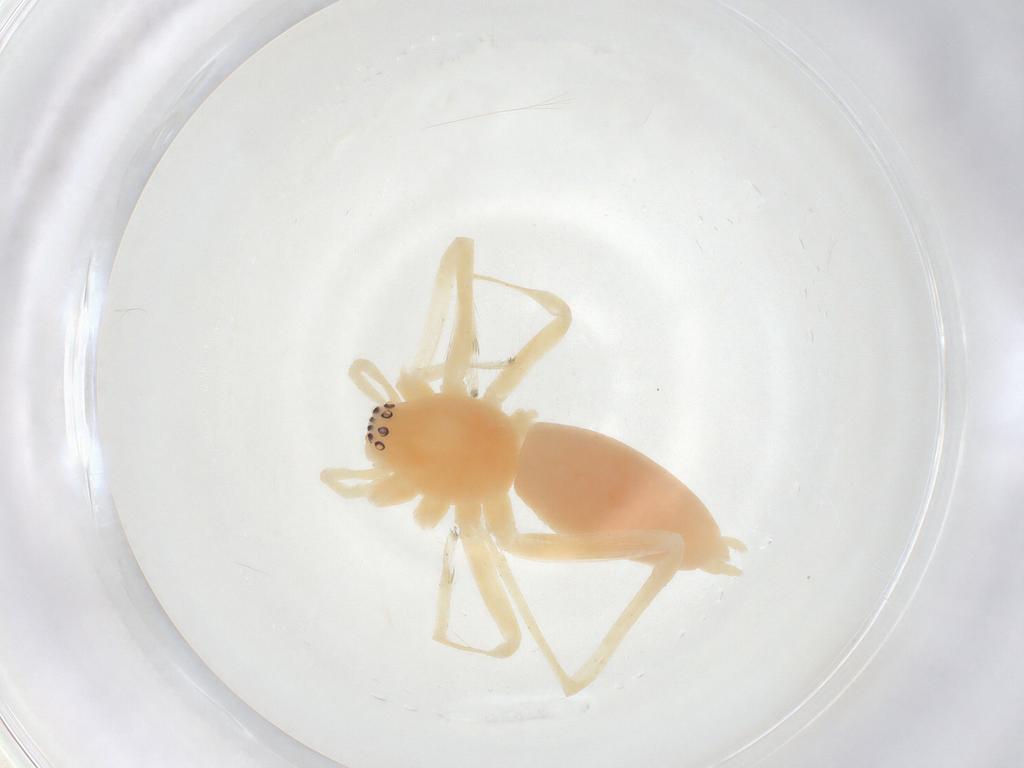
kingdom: Animalia
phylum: Arthropoda
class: Arachnida
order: Araneae
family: Anyphaenidae
